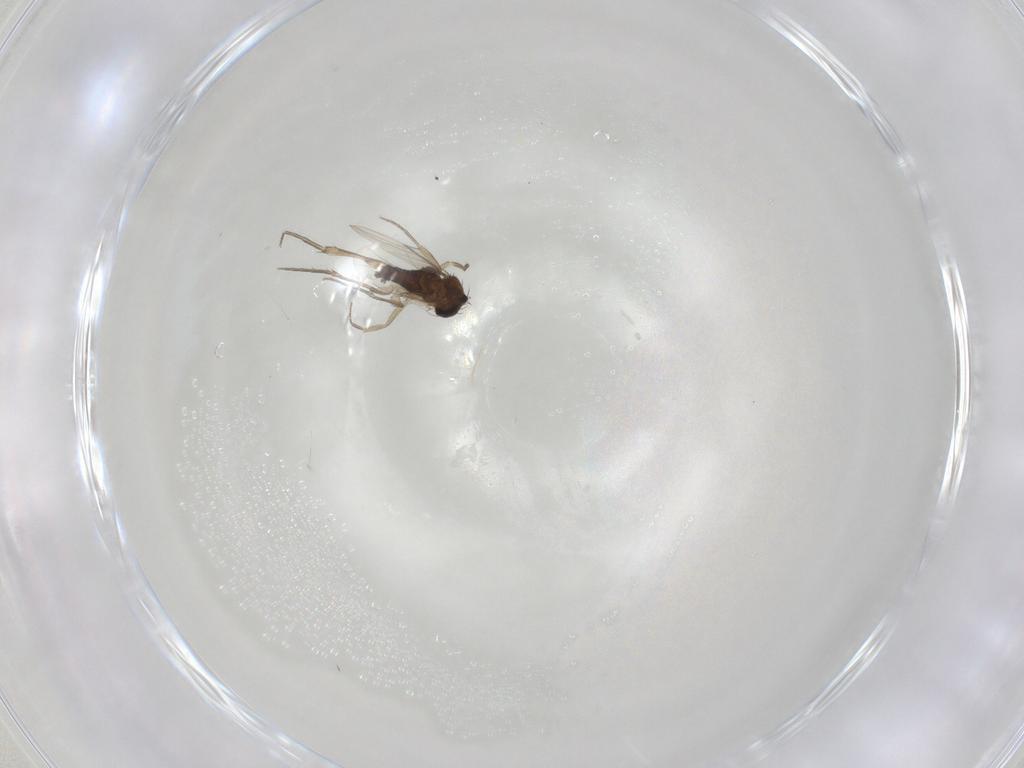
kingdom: Animalia
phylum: Arthropoda
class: Insecta
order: Diptera
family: Phoridae
